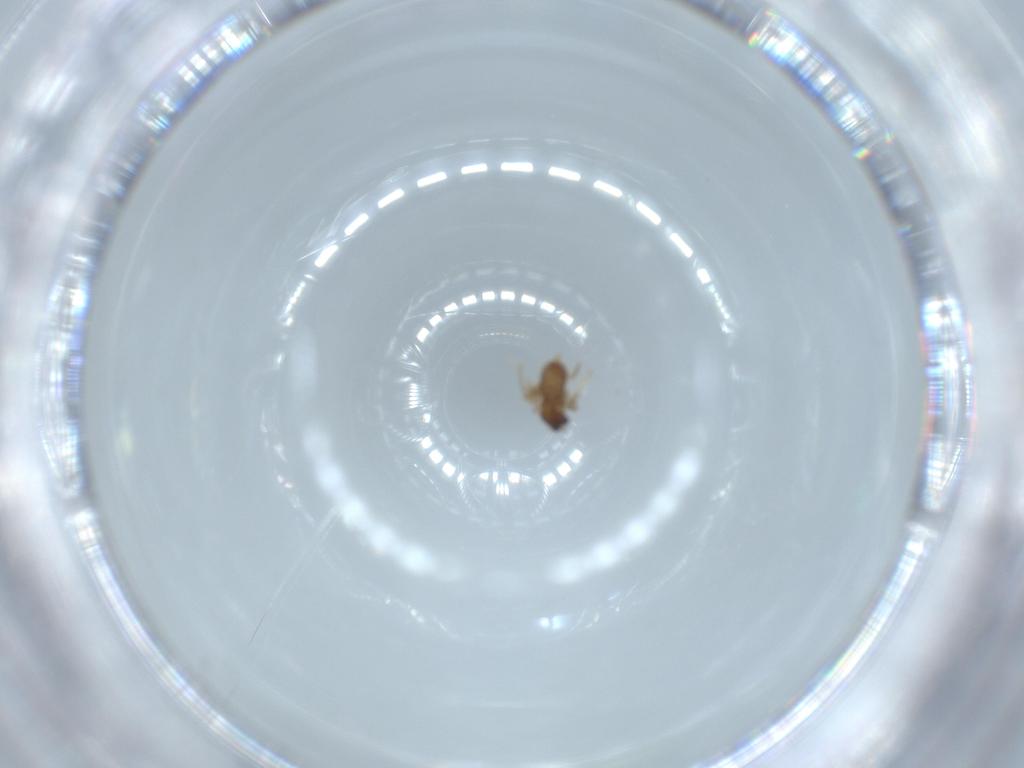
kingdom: Animalia
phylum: Arthropoda
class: Insecta
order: Diptera
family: Cecidomyiidae
